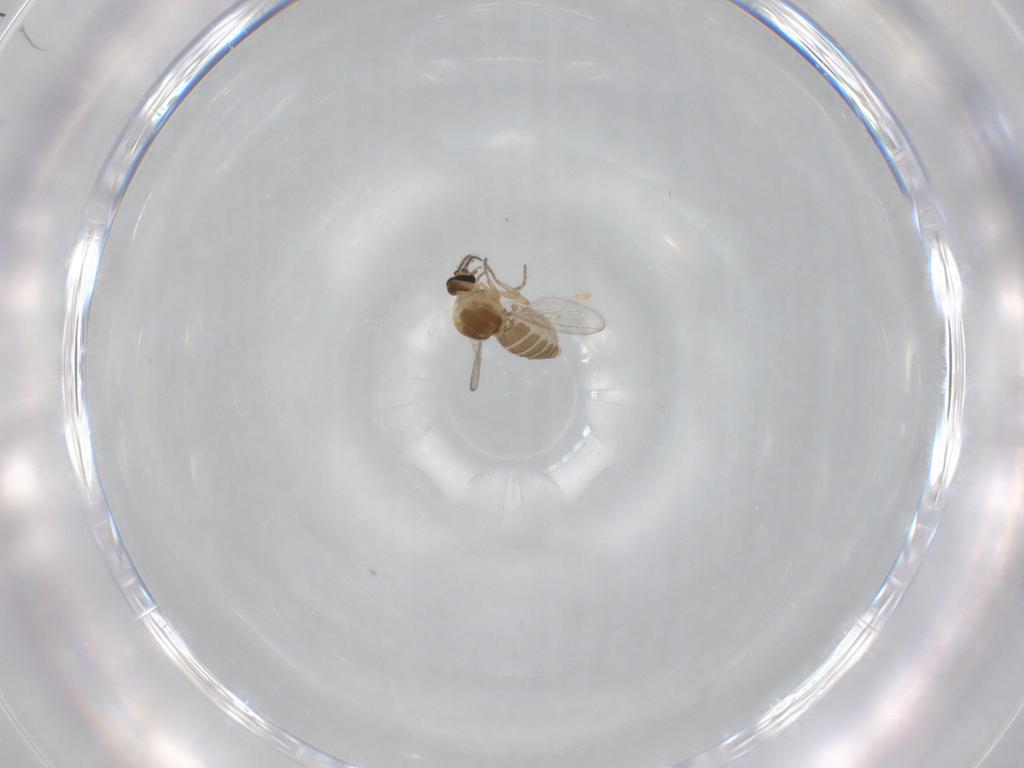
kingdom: Animalia
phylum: Arthropoda
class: Insecta
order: Diptera
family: Ceratopogonidae
